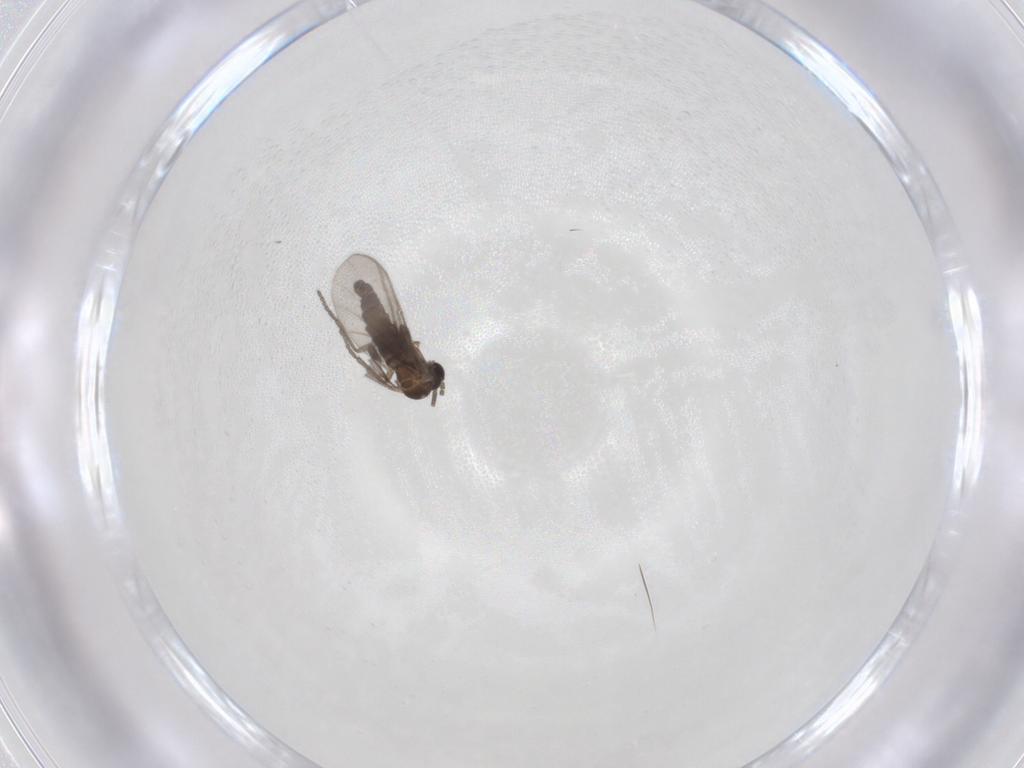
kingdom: Animalia
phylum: Arthropoda
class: Insecta
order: Diptera
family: Sciaridae
